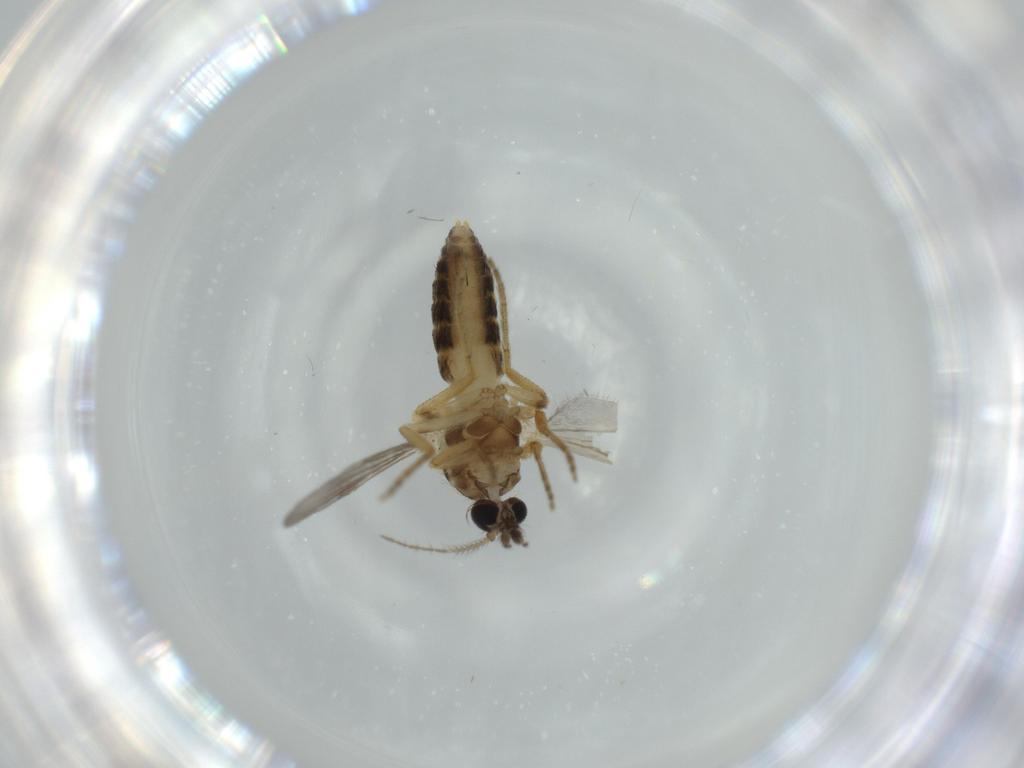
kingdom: Animalia
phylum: Arthropoda
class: Insecta
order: Diptera
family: Ceratopogonidae
